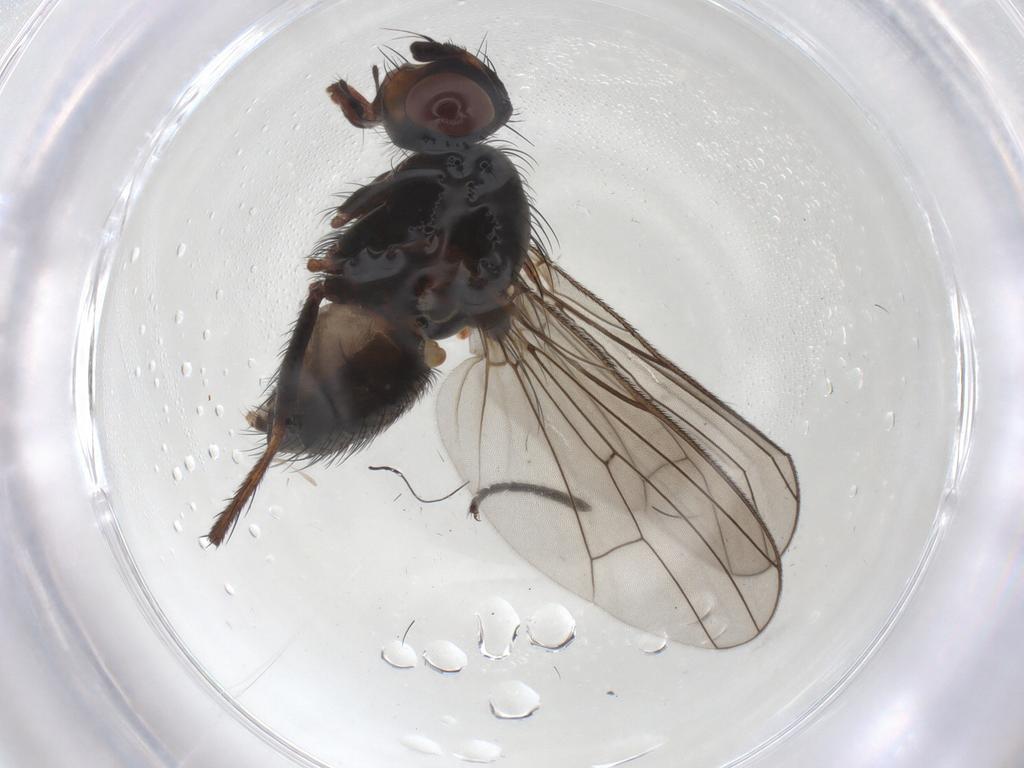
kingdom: Animalia
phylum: Arthropoda
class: Insecta
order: Diptera
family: Anthomyiidae
